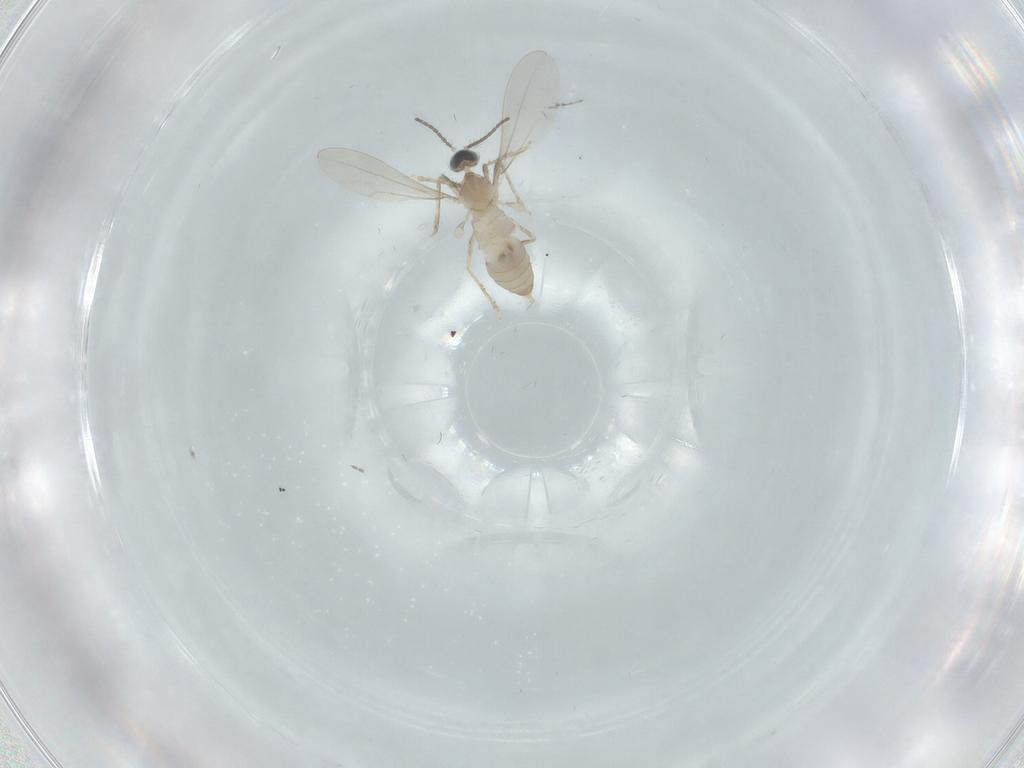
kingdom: Animalia
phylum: Arthropoda
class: Insecta
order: Diptera
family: Cecidomyiidae
